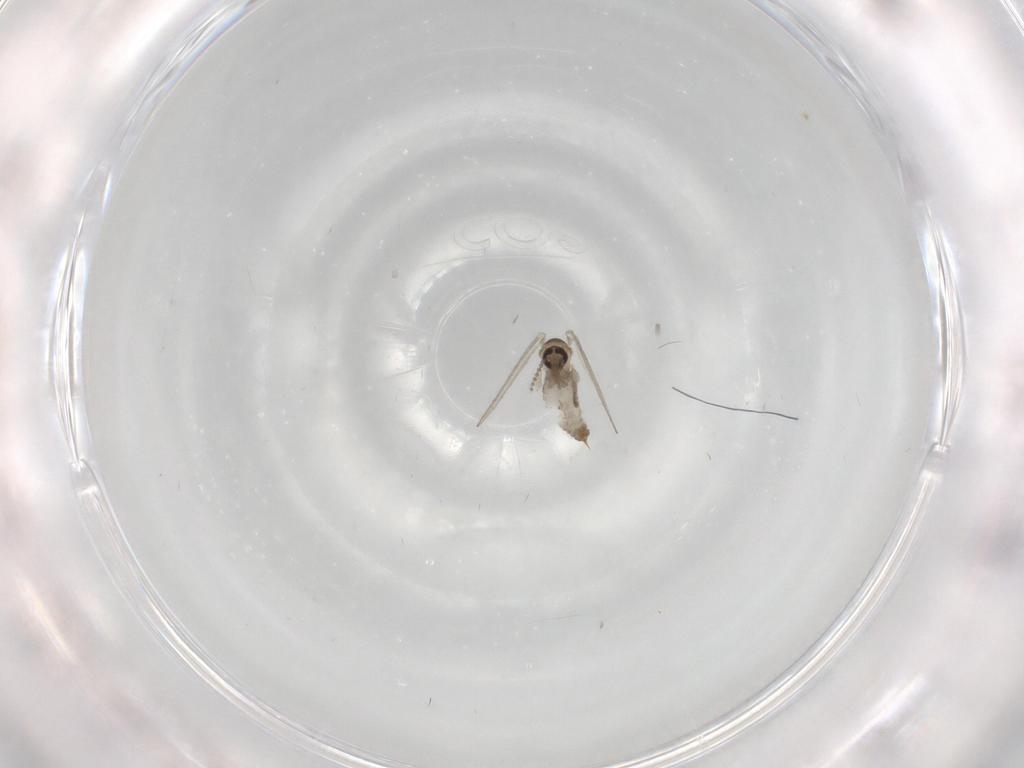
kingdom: Animalia
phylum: Arthropoda
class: Insecta
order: Diptera
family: Psychodidae
